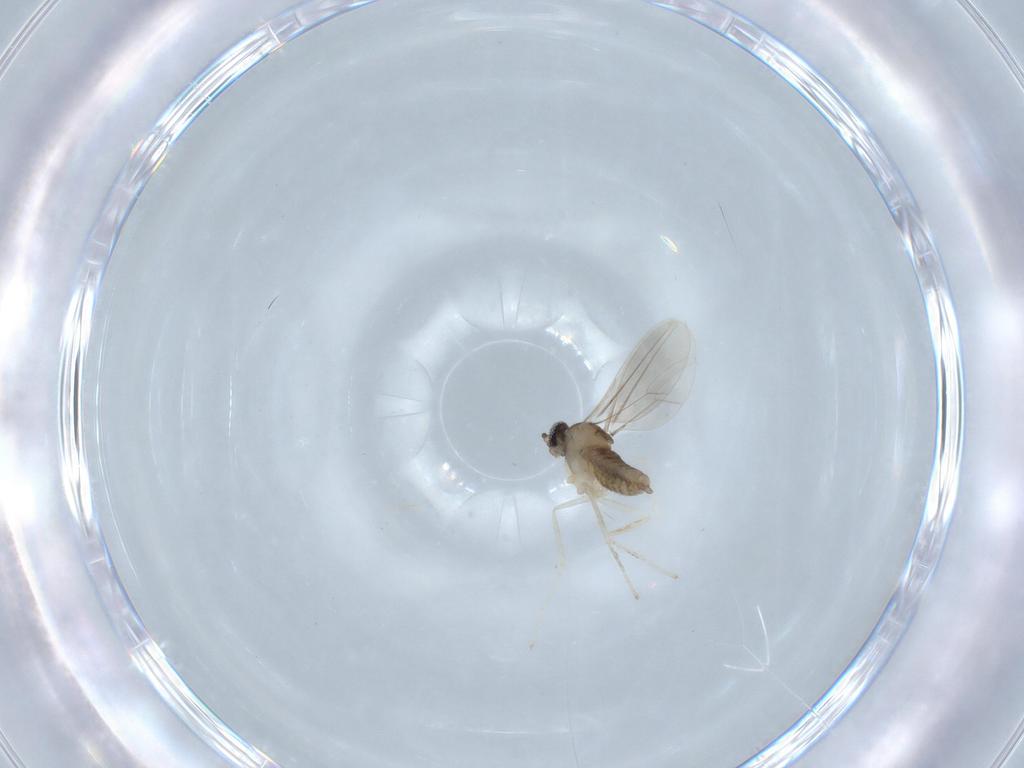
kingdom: Animalia
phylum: Arthropoda
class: Insecta
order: Diptera
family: Cecidomyiidae
